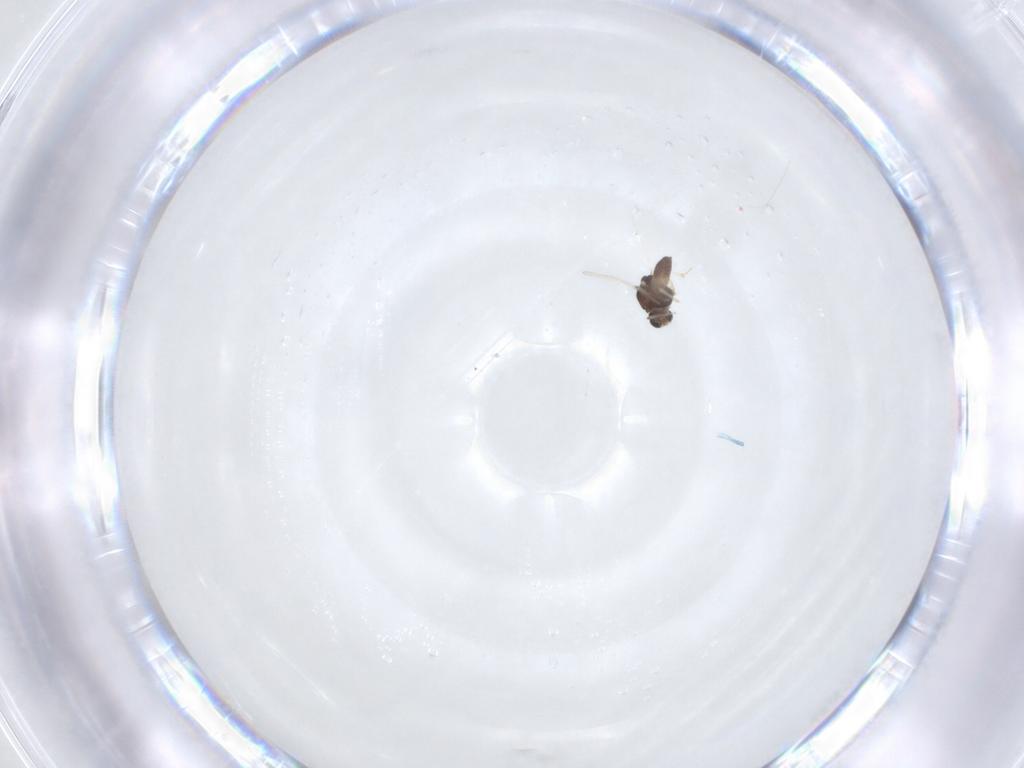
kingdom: Animalia
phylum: Arthropoda
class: Insecta
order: Diptera
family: Chironomidae
